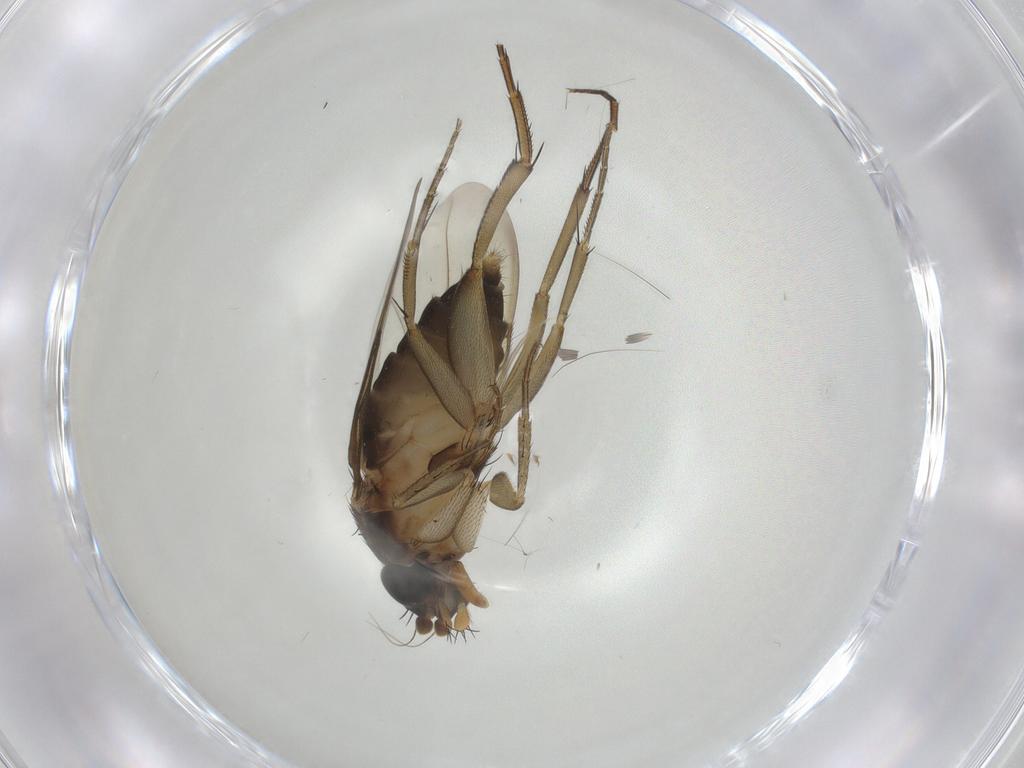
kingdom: Animalia
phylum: Arthropoda
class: Insecta
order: Diptera
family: Phoridae
